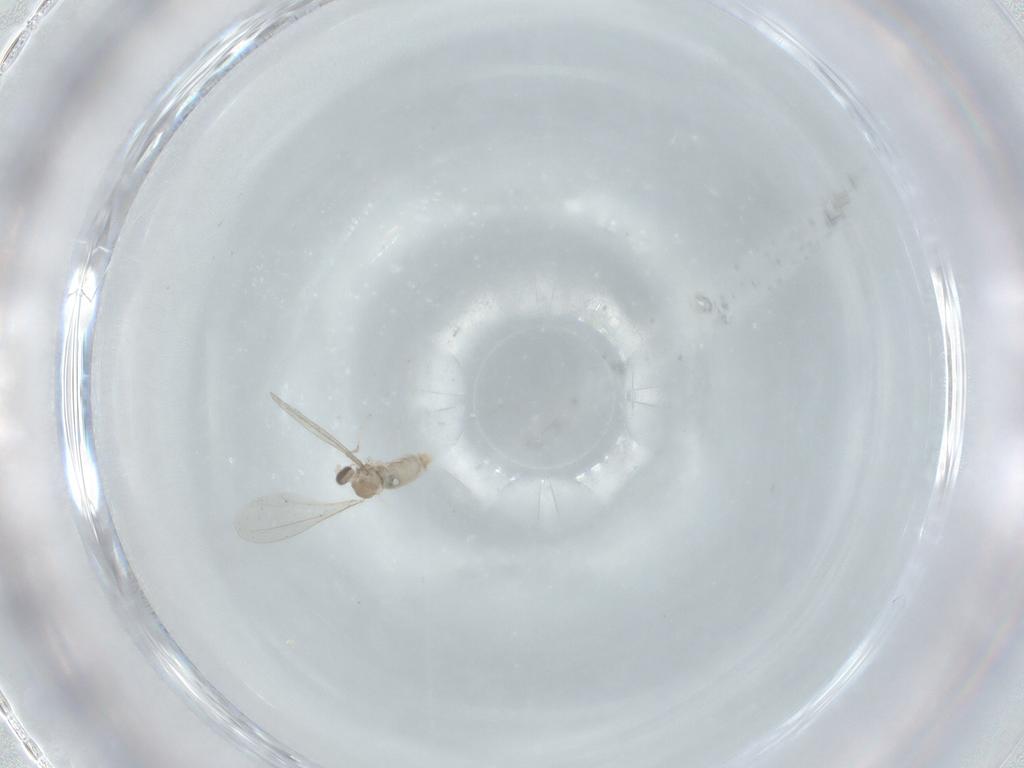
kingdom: Animalia
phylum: Arthropoda
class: Insecta
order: Diptera
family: Cecidomyiidae
